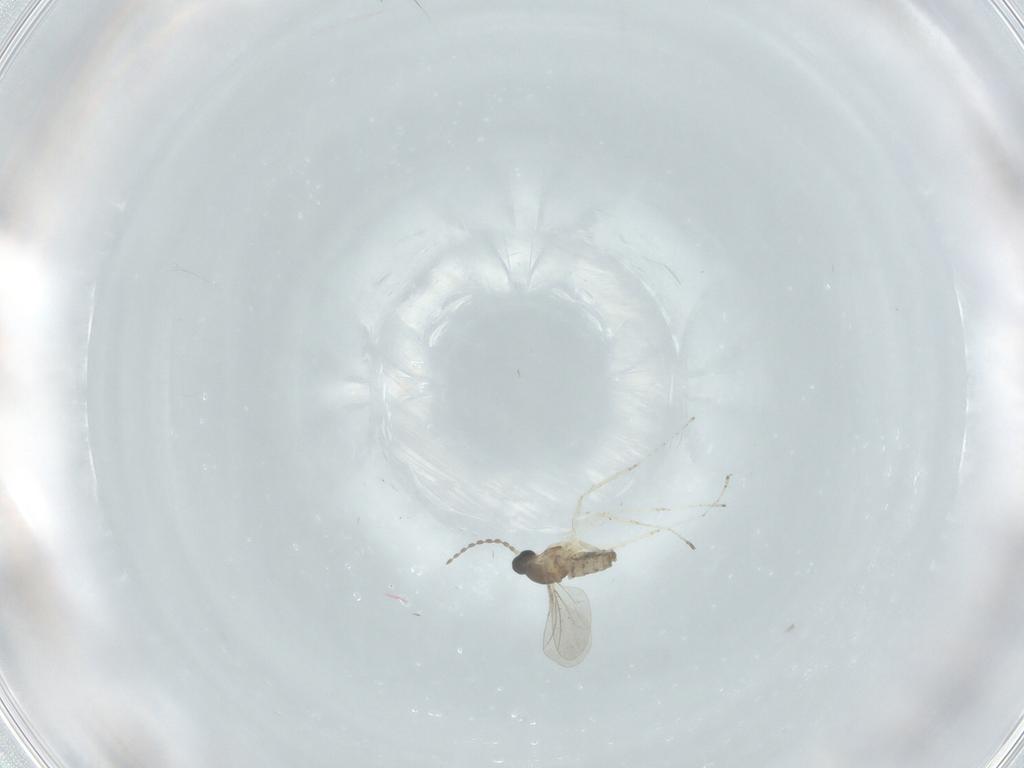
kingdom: Animalia
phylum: Arthropoda
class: Insecta
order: Diptera
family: Cecidomyiidae
